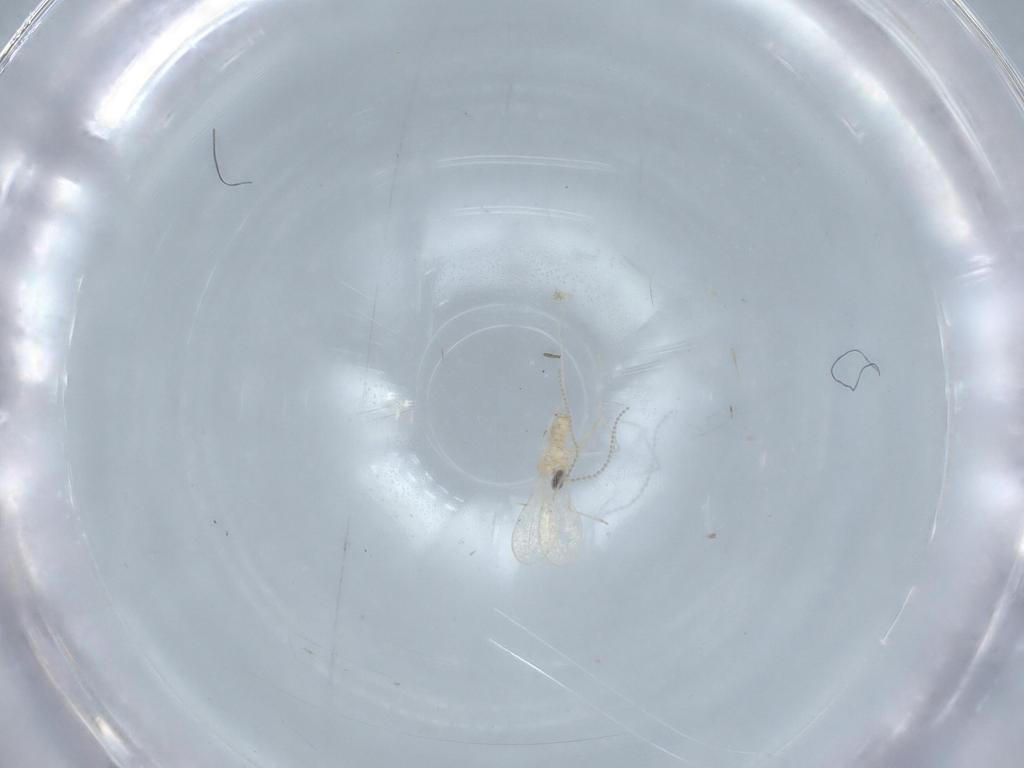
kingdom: Animalia
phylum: Arthropoda
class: Insecta
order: Diptera
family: Cecidomyiidae
